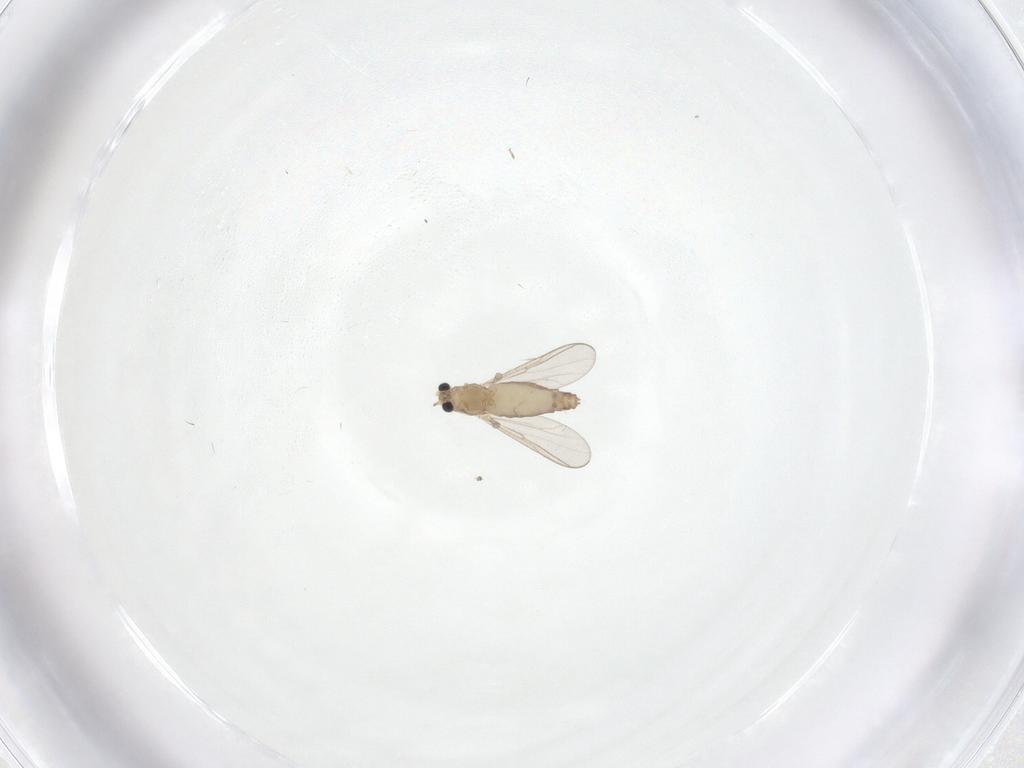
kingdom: Animalia
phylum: Arthropoda
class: Insecta
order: Diptera
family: Chironomidae
